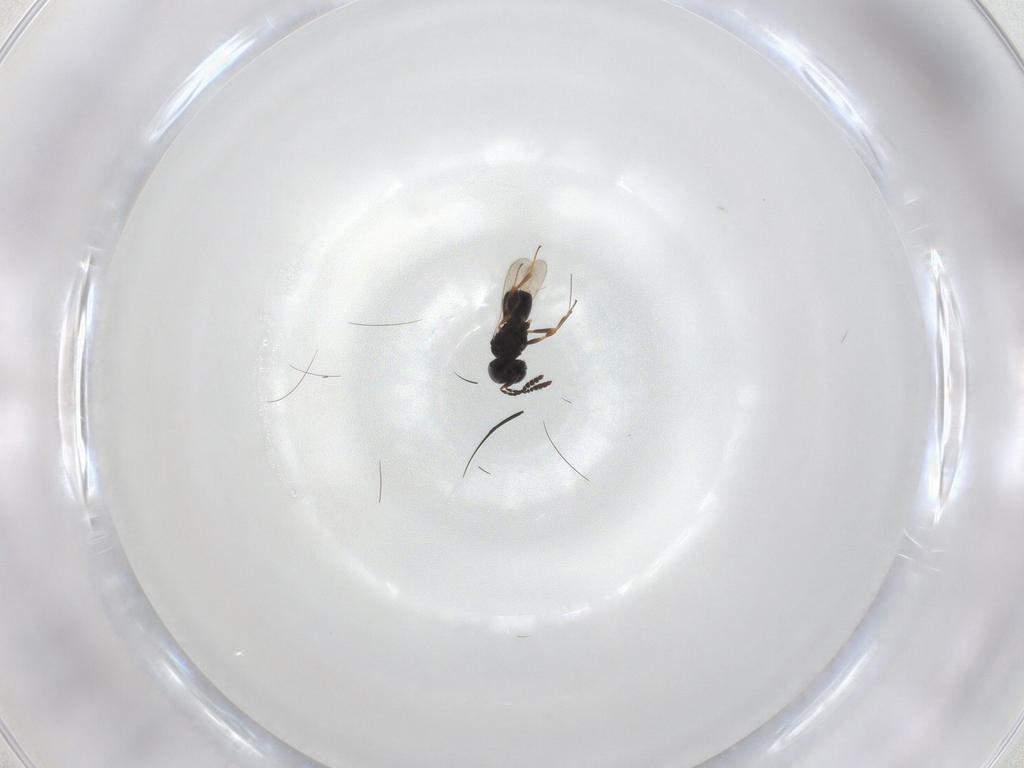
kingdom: Animalia
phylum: Arthropoda
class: Insecta
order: Hymenoptera
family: Scelionidae
